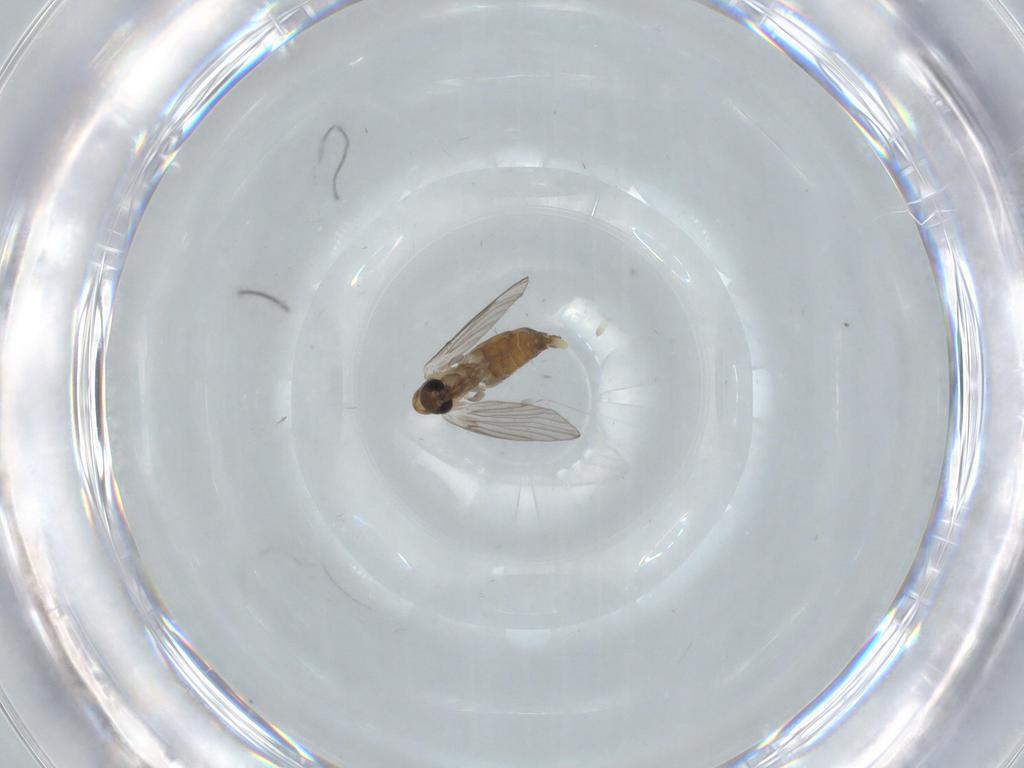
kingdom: Animalia
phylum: Arthropoda
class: Insecta
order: Diptera
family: Psychodidae
